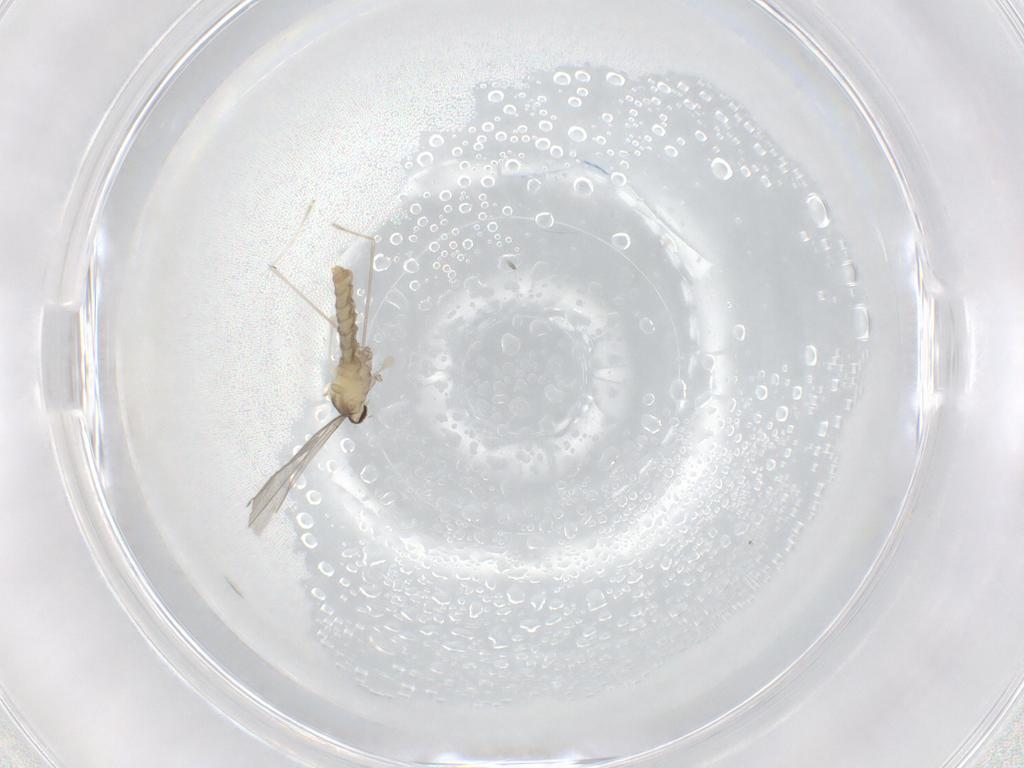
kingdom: Animalia
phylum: Arthropoda
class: Insecta
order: Diptera
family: Cecidomyiidae
